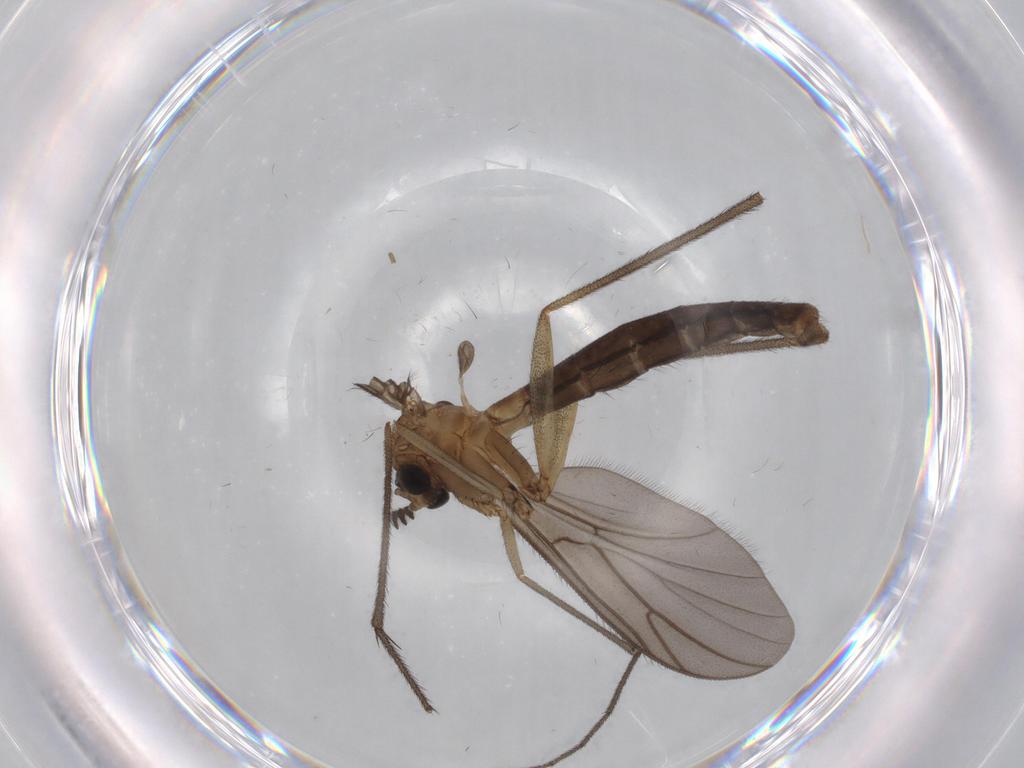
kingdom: Animalia
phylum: Arthropoda
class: Insecta
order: Diptera
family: Ditomyiidae
